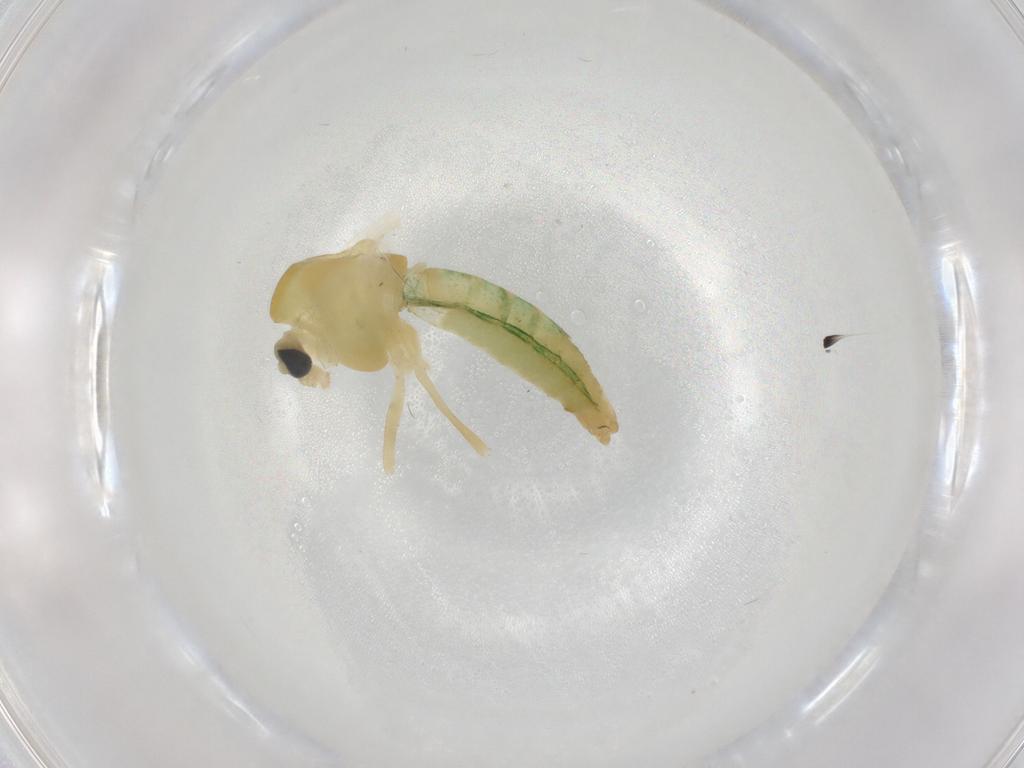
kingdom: Animalia
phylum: Arthropoda
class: Insecta
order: Diptera
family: Chironomidae
